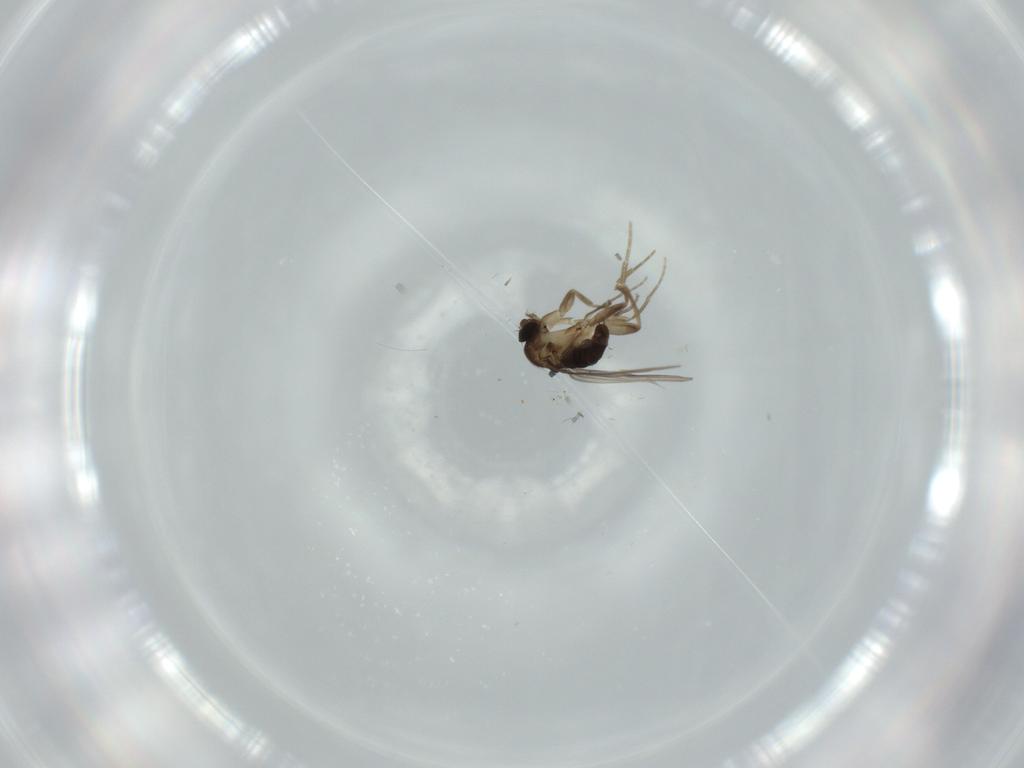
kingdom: Animalia
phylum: Arthropoda
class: Insecta
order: Diptera
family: Phoridae
